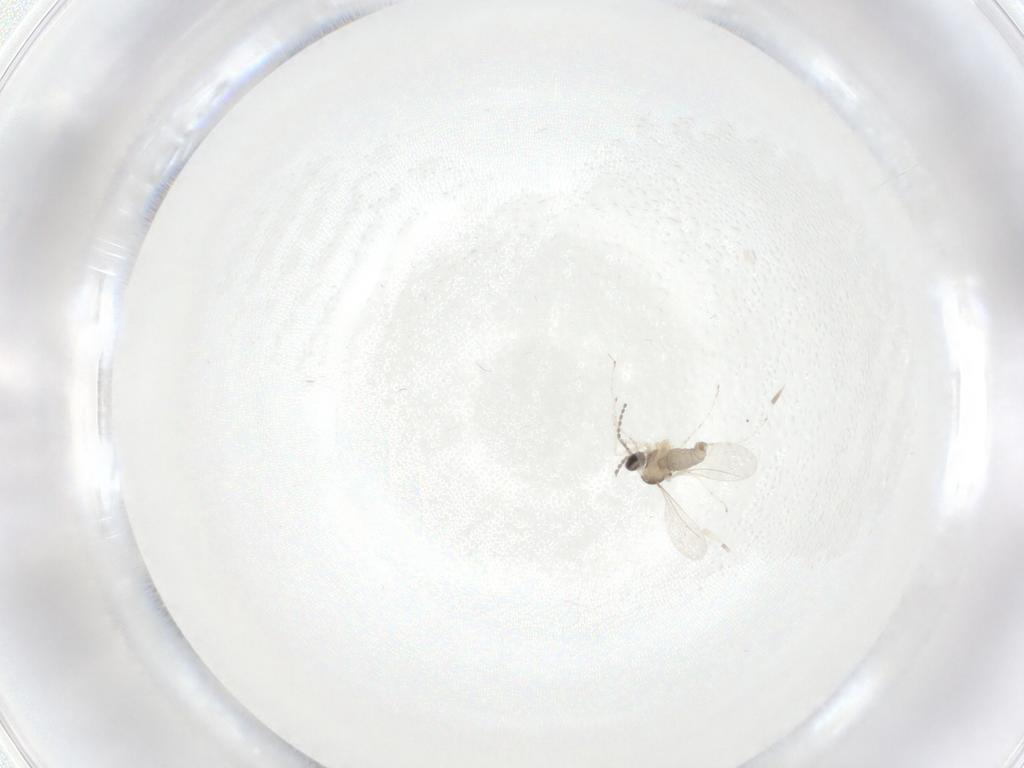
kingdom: Animalia
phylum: Arthropoda
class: Insecta
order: Diptera
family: Cecidomyiidae
